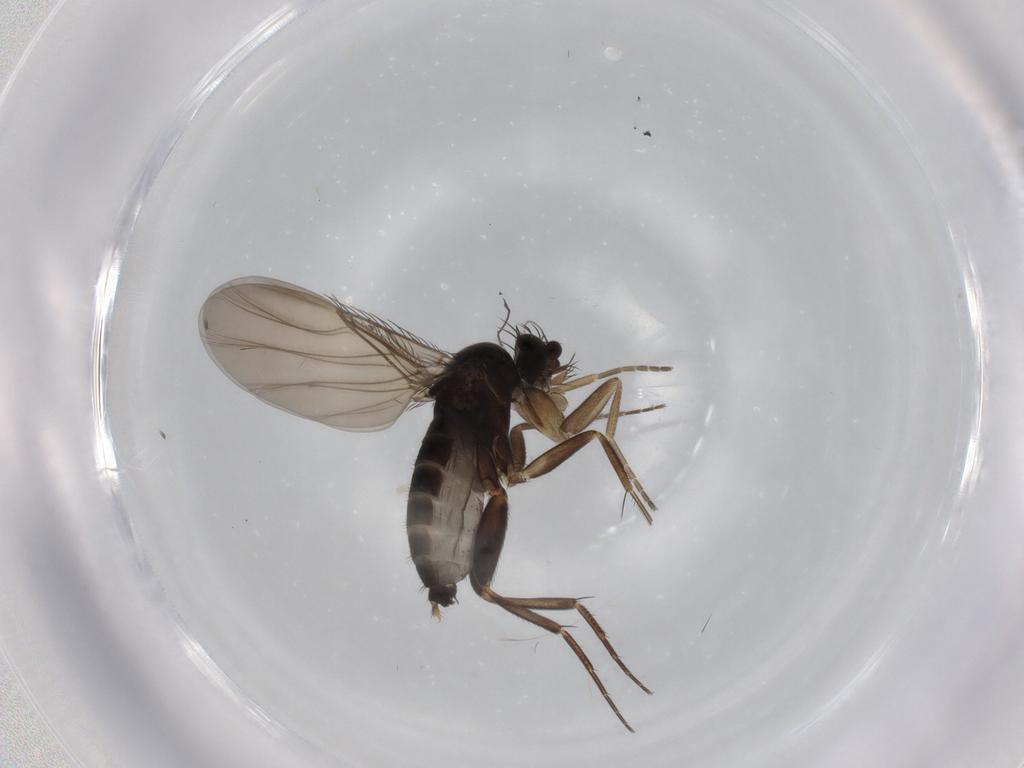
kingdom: Animalia
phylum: Arthropoda
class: Insecta
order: Diptera
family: Phoridae
